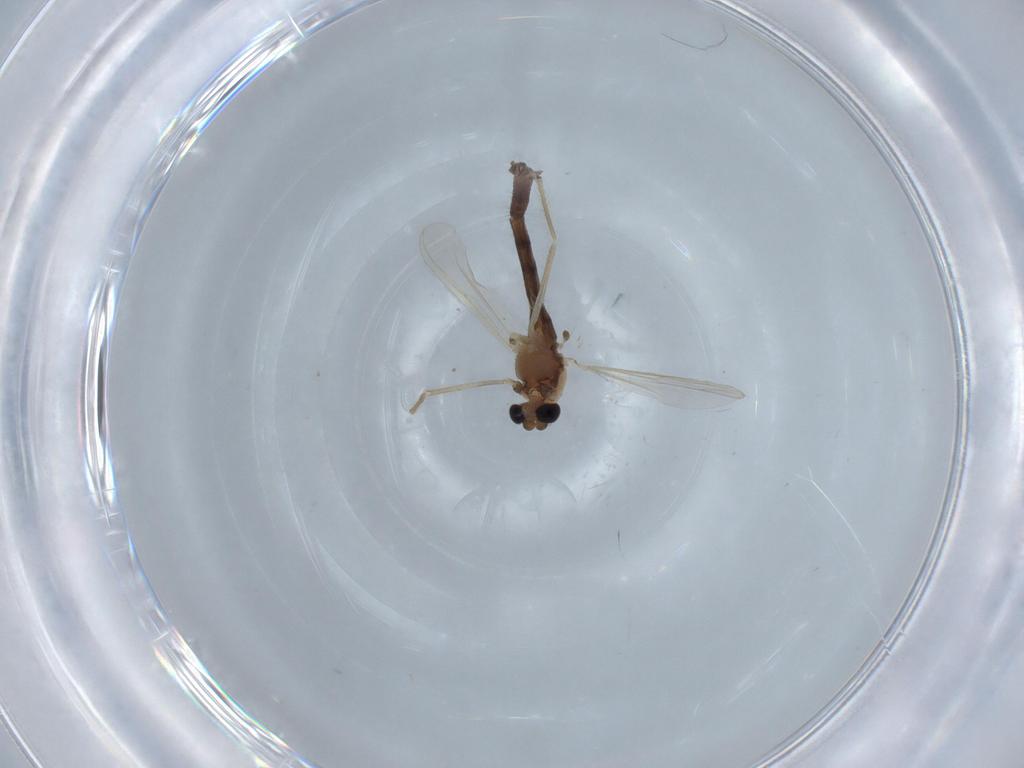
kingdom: Animalia
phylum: Arthropoda
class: Insecta
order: Diptera
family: Chironomidae
